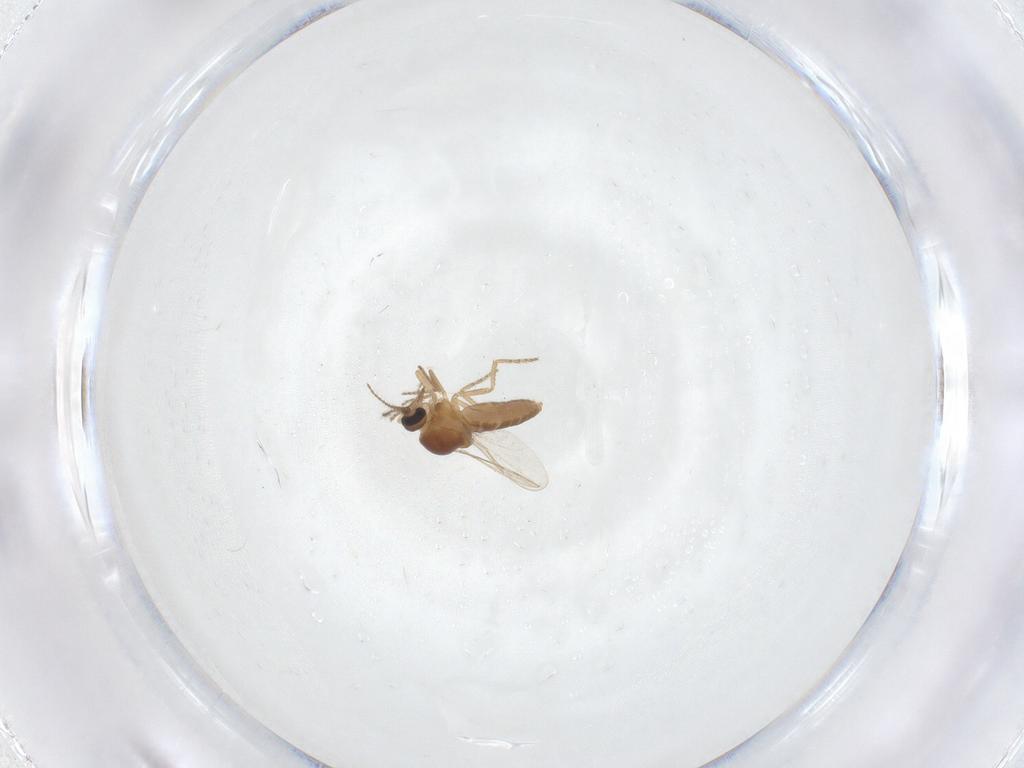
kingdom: Animalia
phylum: Arthropoda
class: Insecta
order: Diptera
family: Ceratopogonidae
